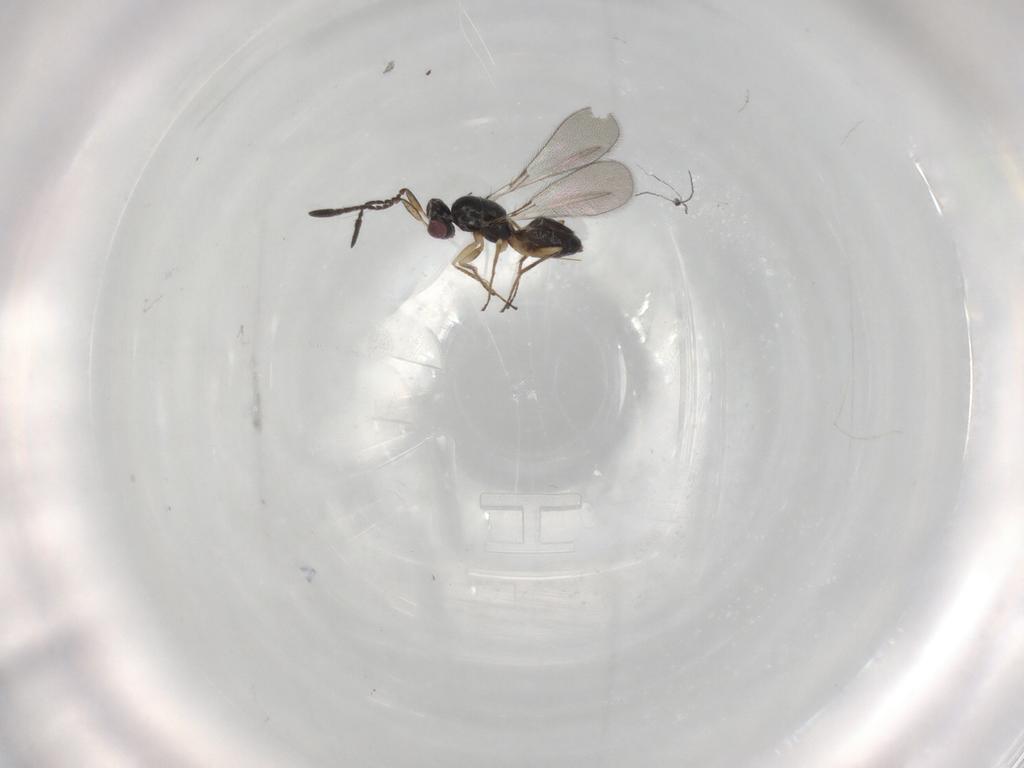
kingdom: Animalia
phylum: Arthropoda
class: Insecta
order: Hymenoptera
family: Mymaridae
